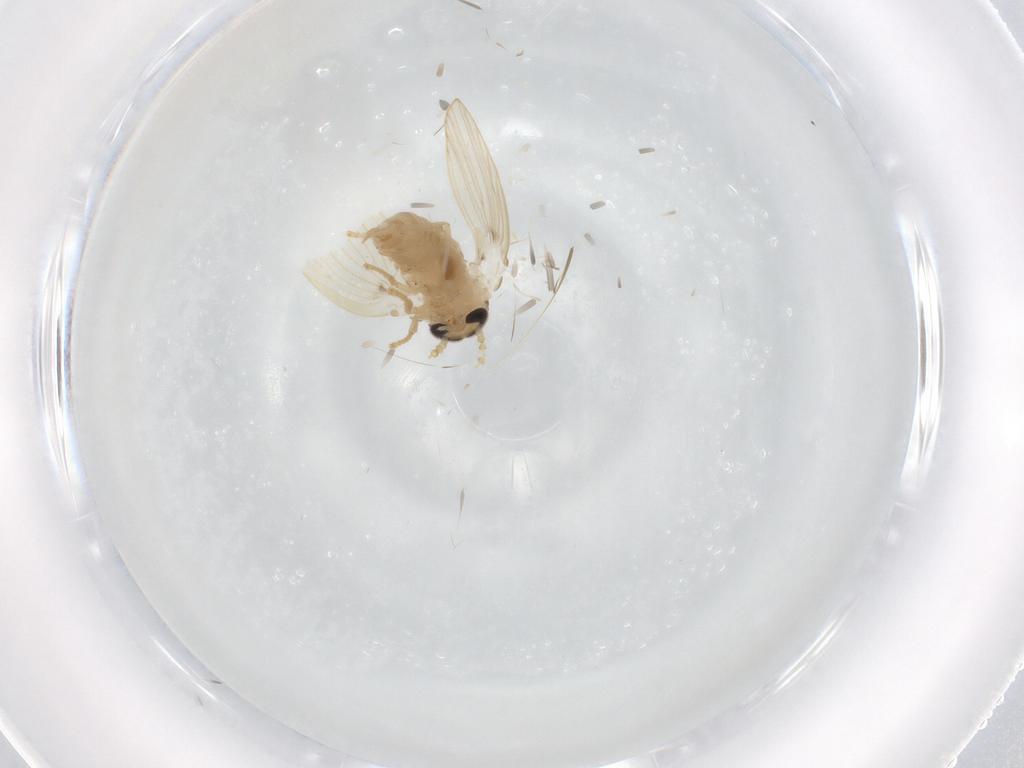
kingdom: Animalia
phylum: Arthropoda
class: Insecta
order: Diptera
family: Psychodidae
